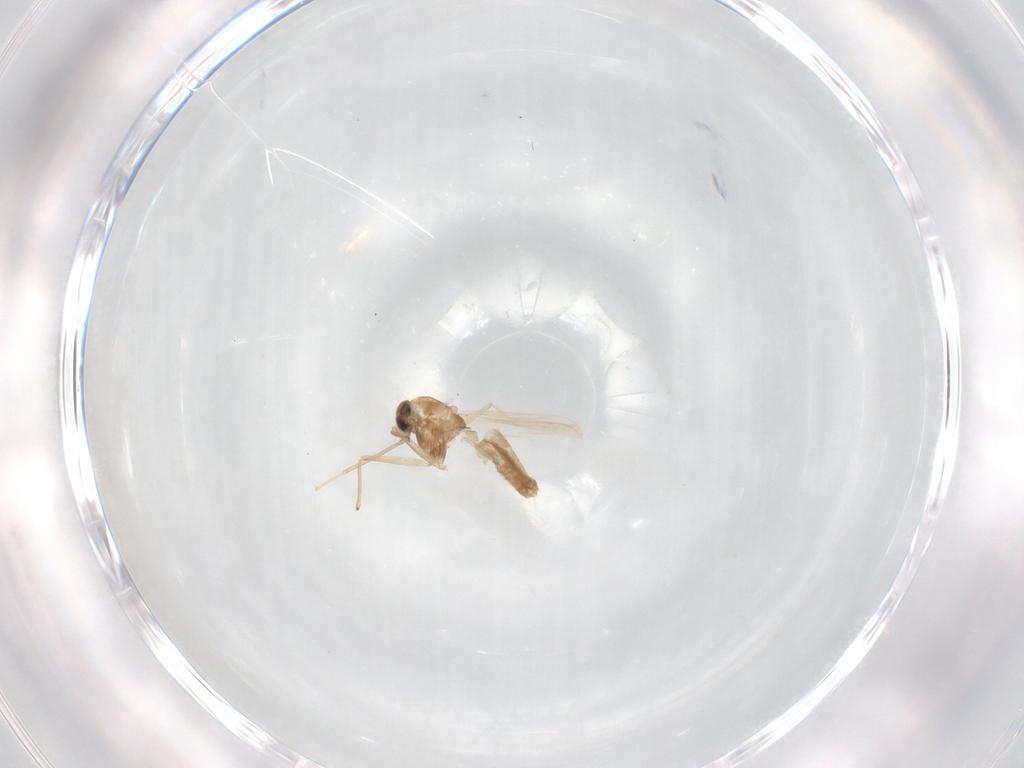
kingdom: Animalia
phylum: Arthropoda
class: Insecta
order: Diptera
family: Chironomidae
